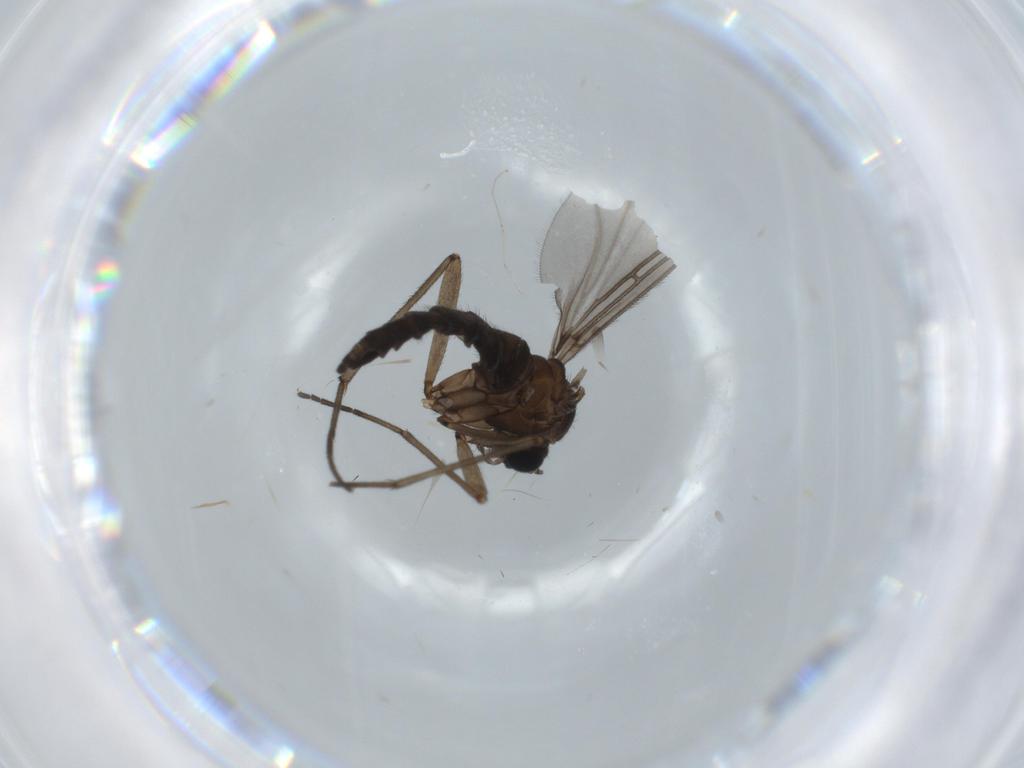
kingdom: Animalia
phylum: Arthropoda
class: Insecta
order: Diptera
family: Sciaridae
